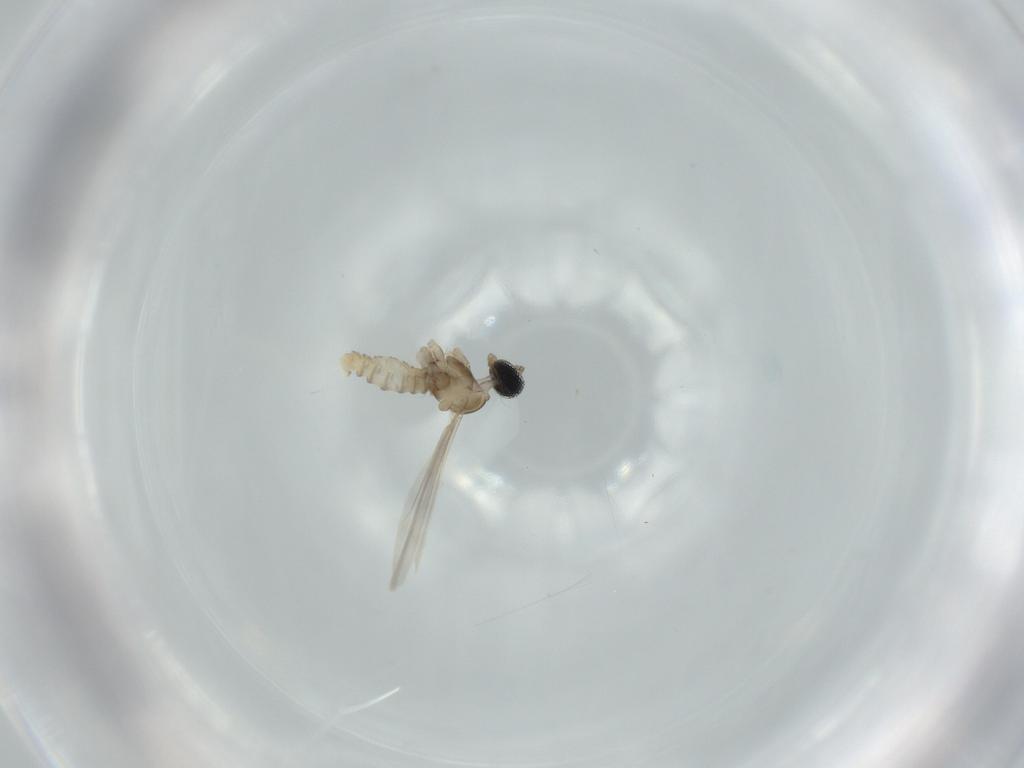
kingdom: Animalia
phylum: Arthropoda
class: Insecta
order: Diptera
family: Cecidomyiidae
